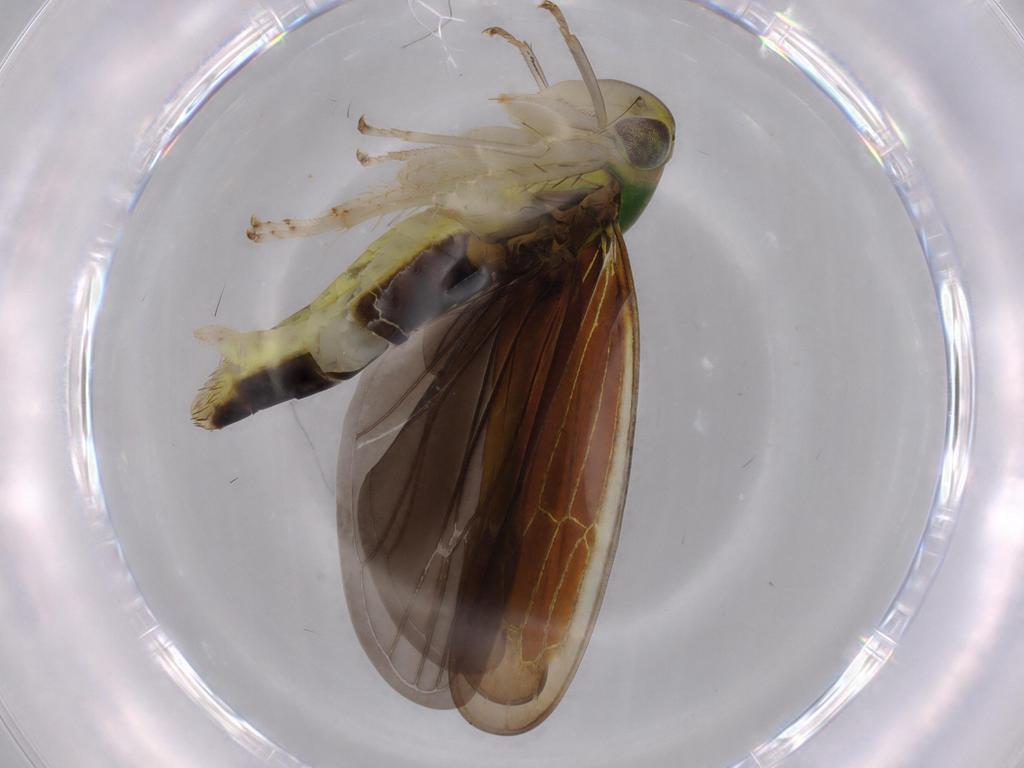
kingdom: Animalia
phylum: Arthropoda
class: Insecta
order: Hemiptera
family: Cicadellidae
